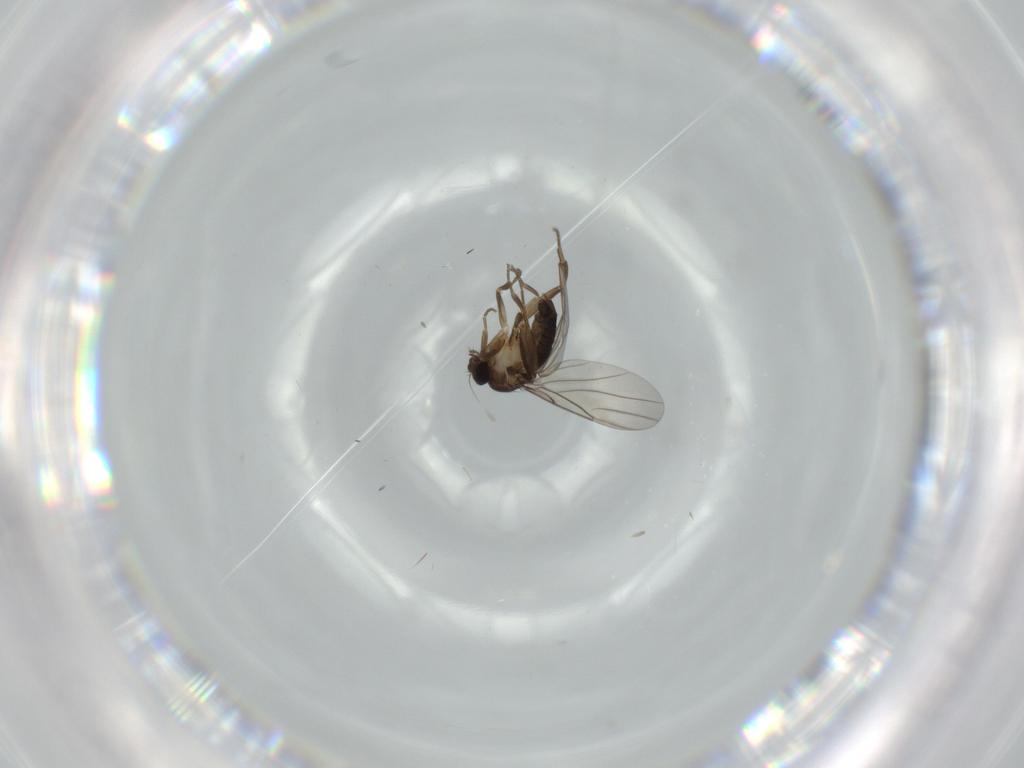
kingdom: Animalia
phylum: Arthropoda
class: Insecta
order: Diptera
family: Phoridae
